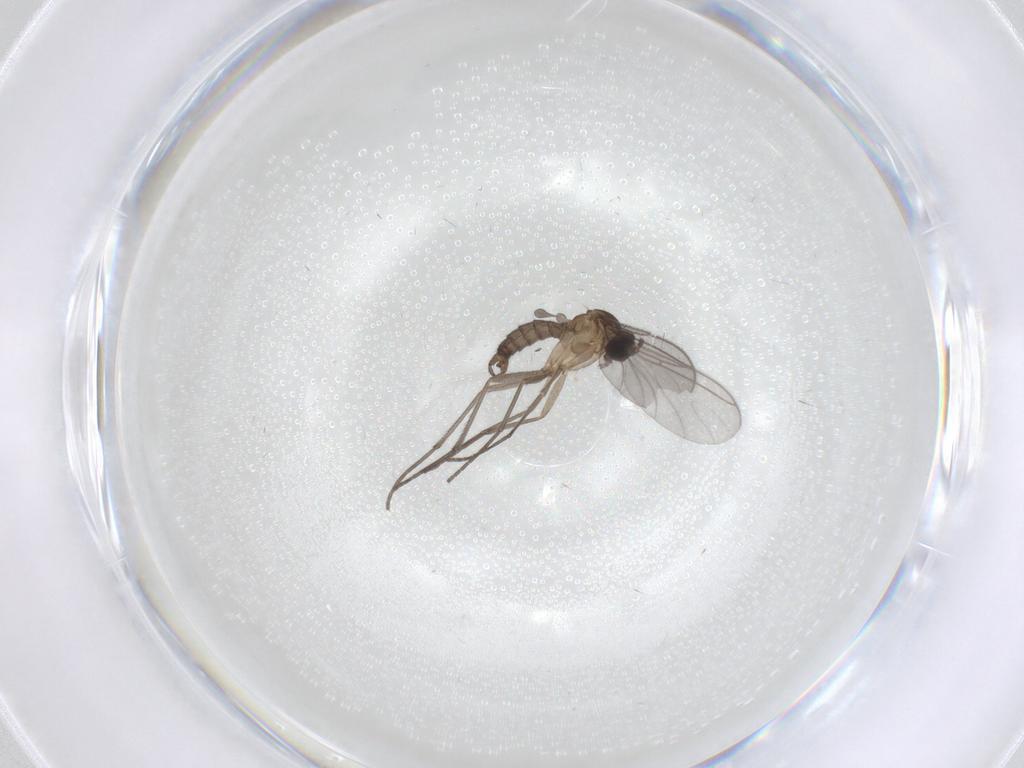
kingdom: Animalia
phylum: Arthropoda
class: Insecta
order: Diptera
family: Sciaridae
